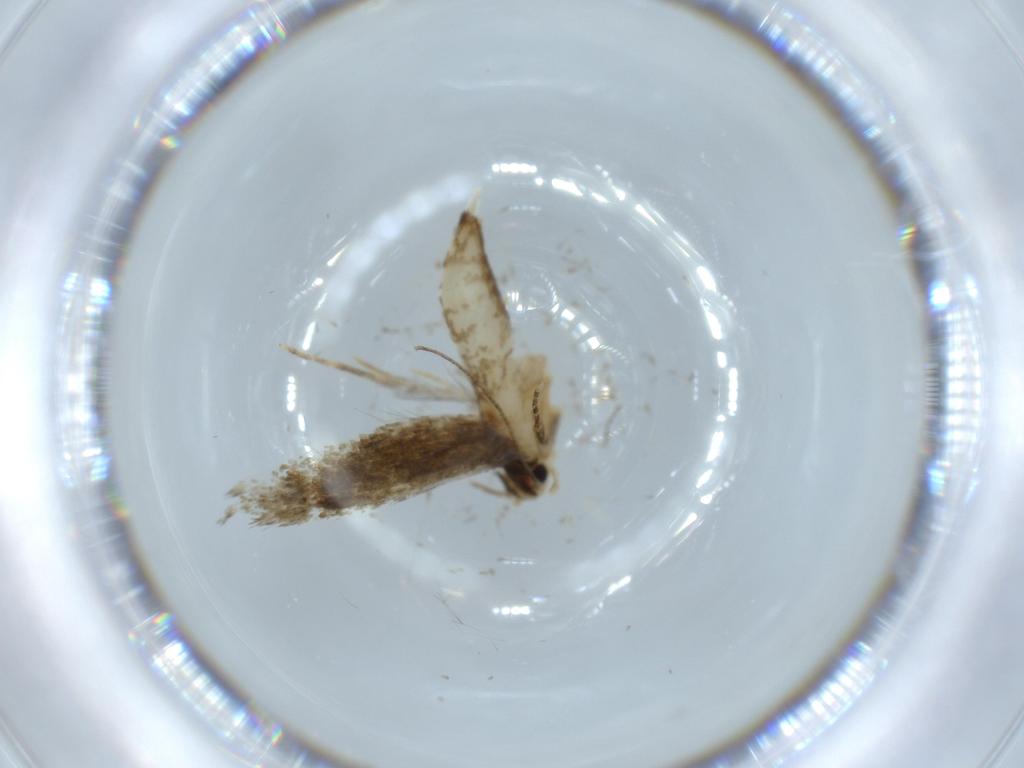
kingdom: Animalia
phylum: Arthropoda
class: Insecta
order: Lepidoptera
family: Tineidae
